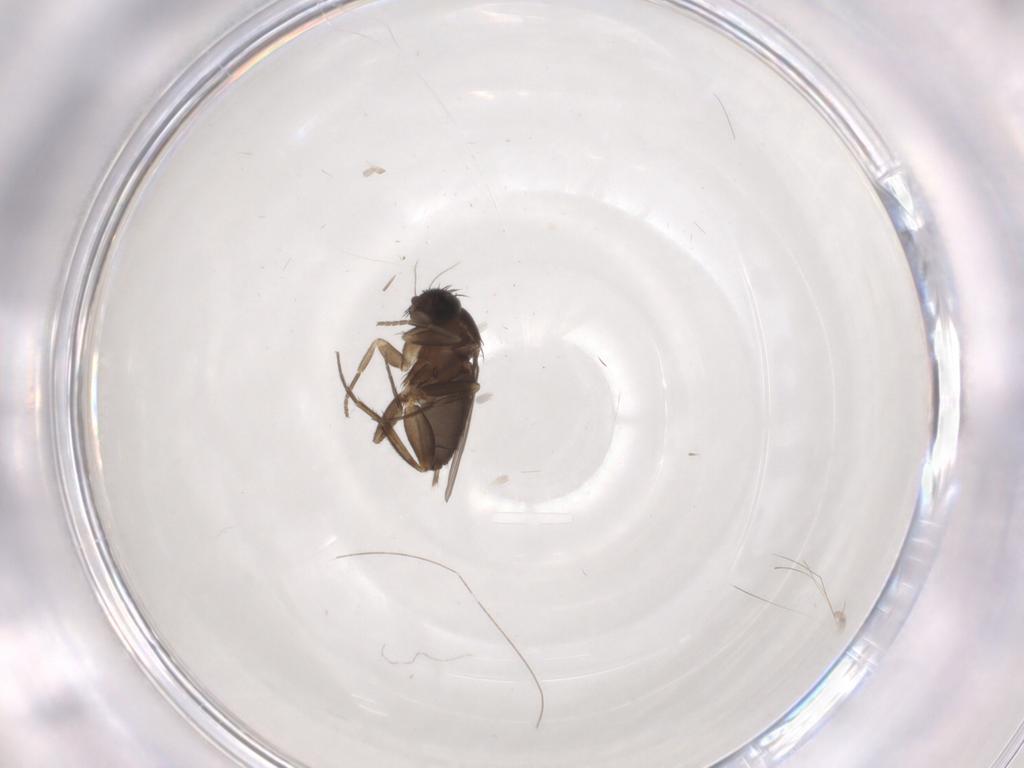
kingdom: Animalia
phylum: Arthropoda
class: Insecta
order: Diptera
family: Phoridae
